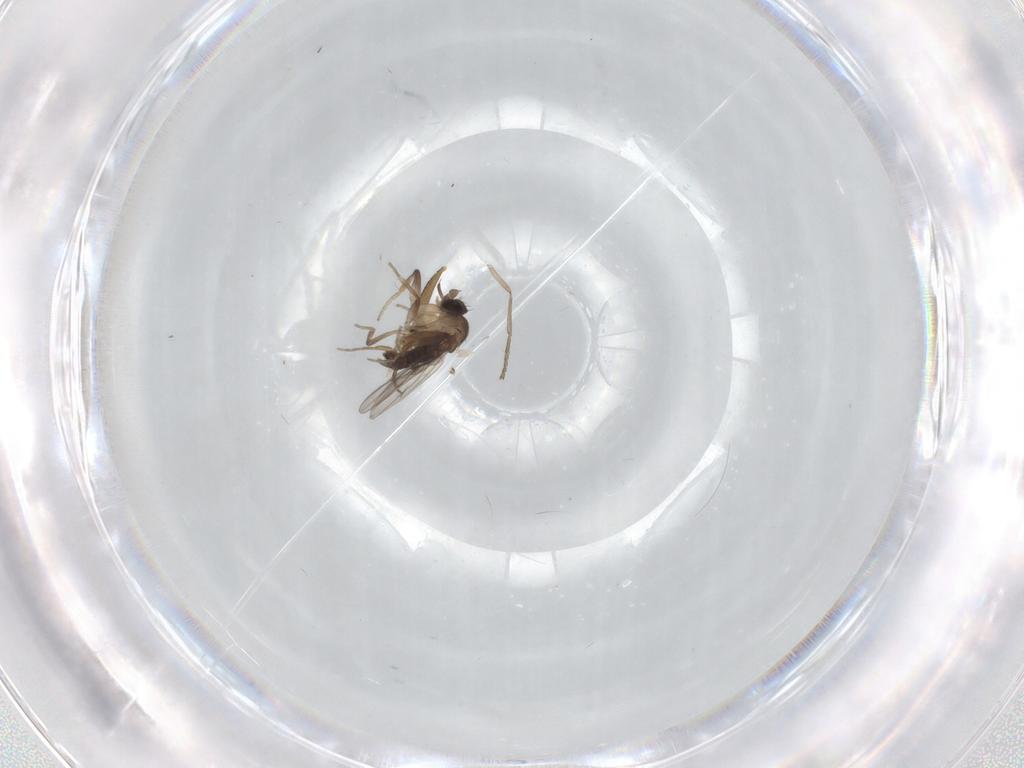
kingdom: Animalia
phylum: Arthropoda
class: Insecta
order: Diptera
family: Psychodidae
